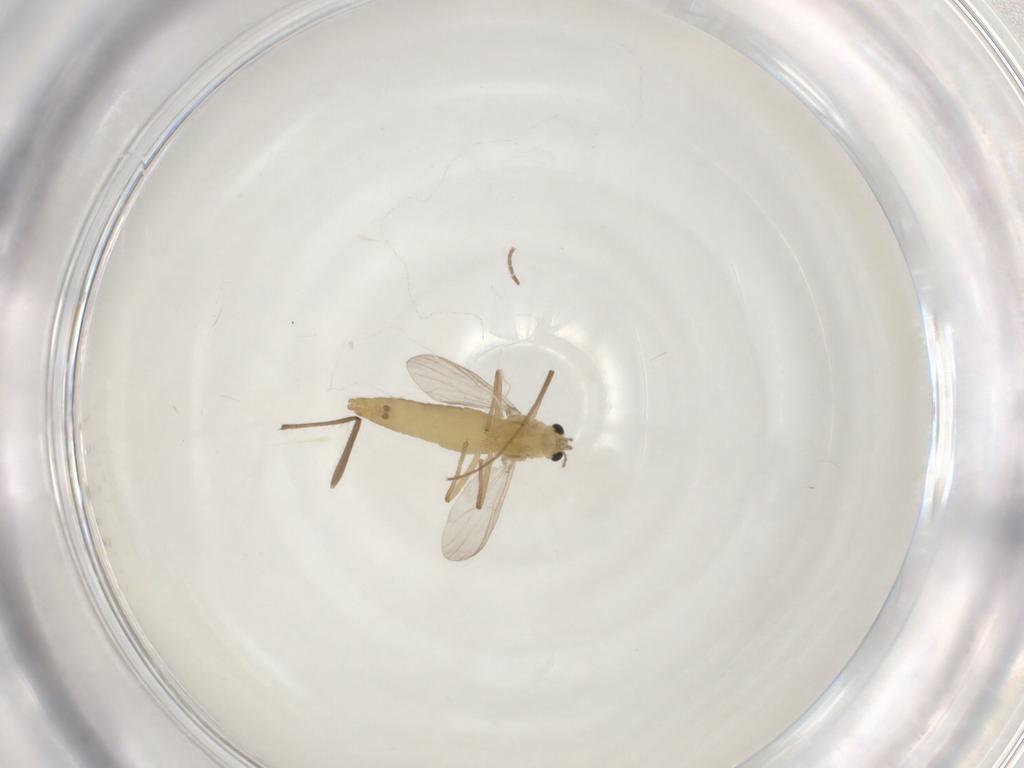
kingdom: Animalia
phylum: Arthropoda
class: Insecta
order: Diptera
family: Cecidomyiidae
